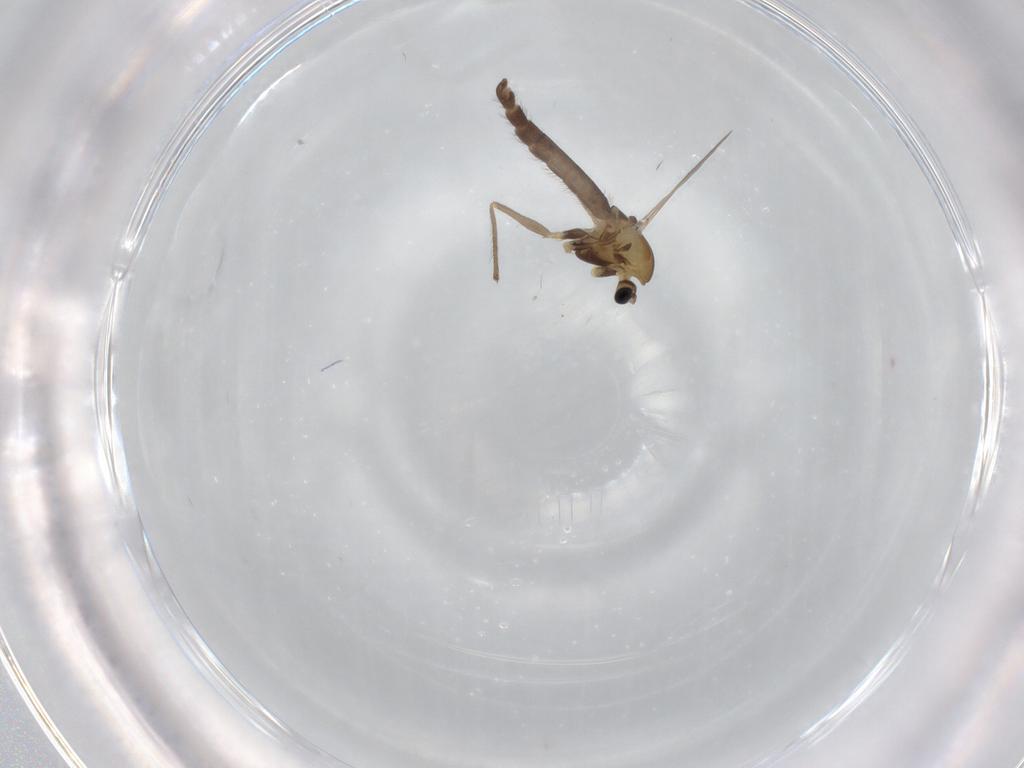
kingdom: Animalia
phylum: Arthropoda
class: Insecta
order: Diptera
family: Chironomidae
